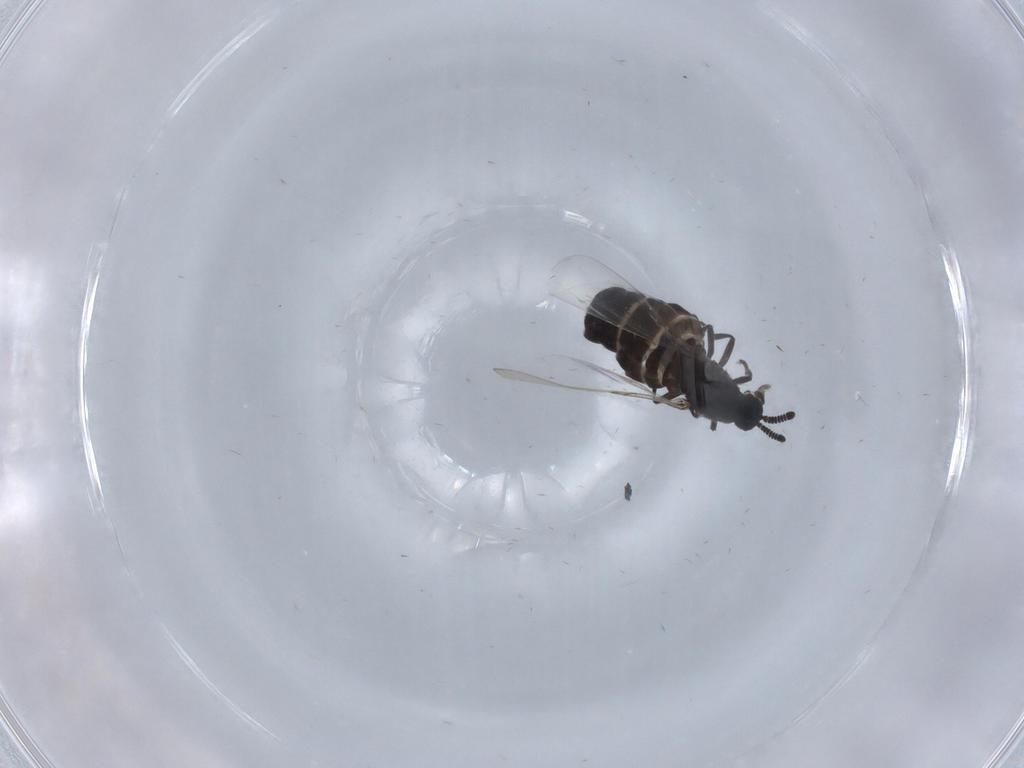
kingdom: Animalia
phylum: Arthropoda
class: Insecta
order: Diptera
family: Scatopsidae
